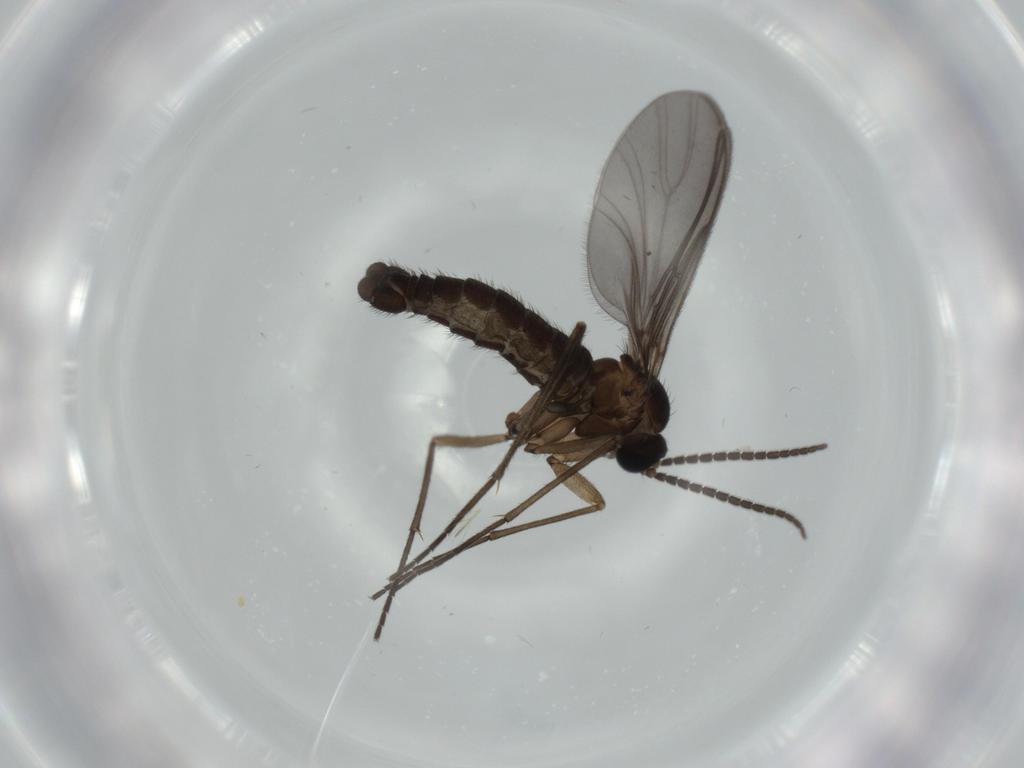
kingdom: Animalia
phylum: Arthropoda
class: Insecta
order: Diptera
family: Sciaridae
